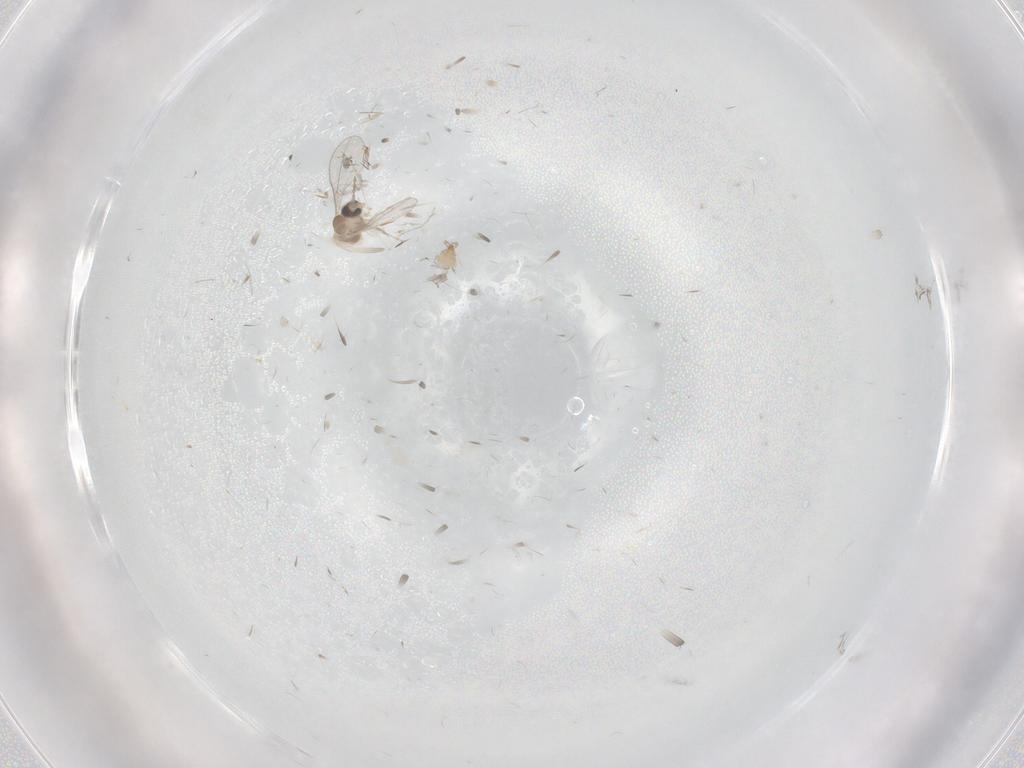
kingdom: Animalia
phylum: Arthropoda
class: Insecta
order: Diptera
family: Cecidomyiidae
